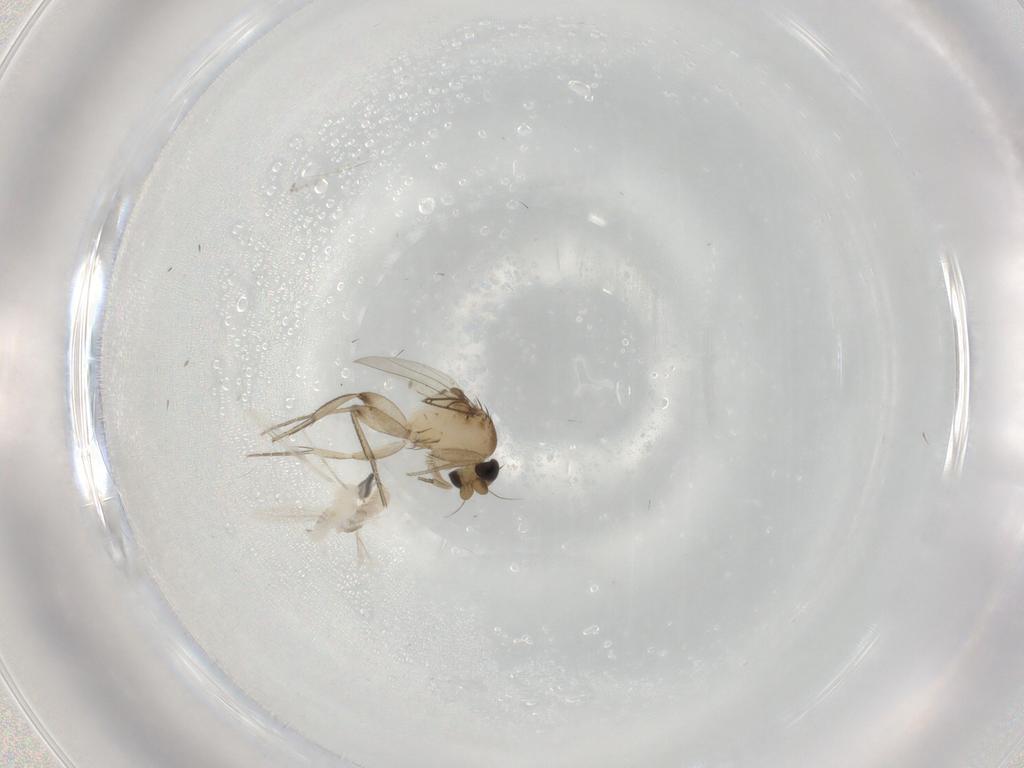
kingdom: Animalia
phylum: Arthropoda
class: Insecta
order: Diptera
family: Phoridae
